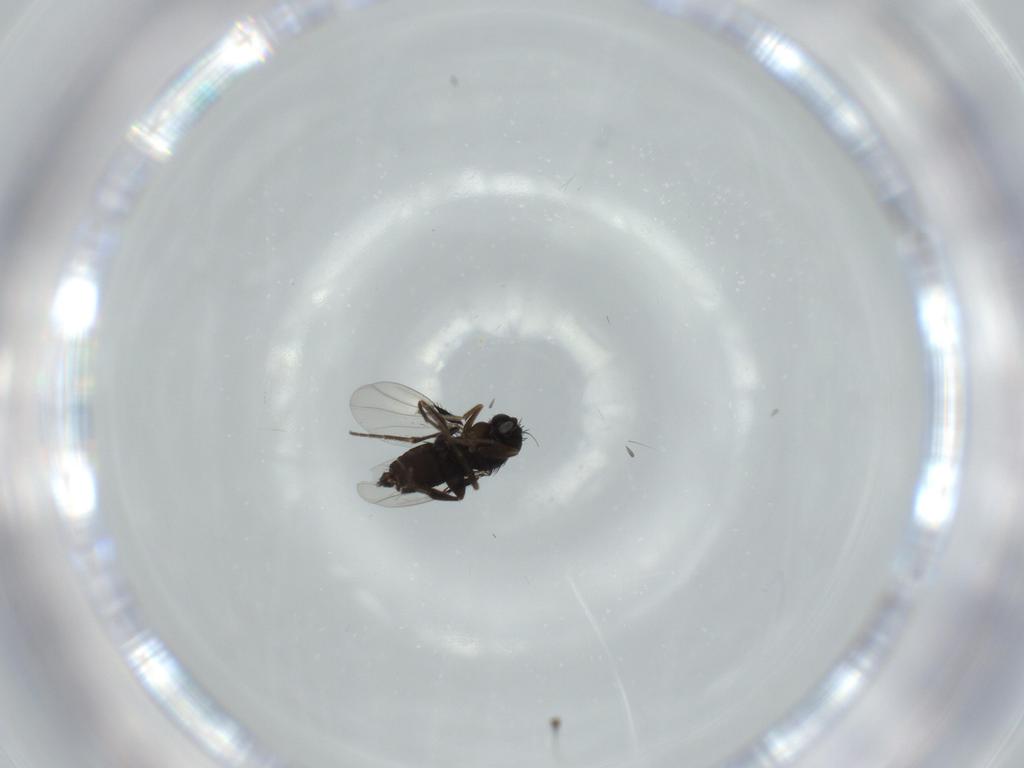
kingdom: Animalia
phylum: Arthropoda
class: Insecta
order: Diptera
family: Phoridae
